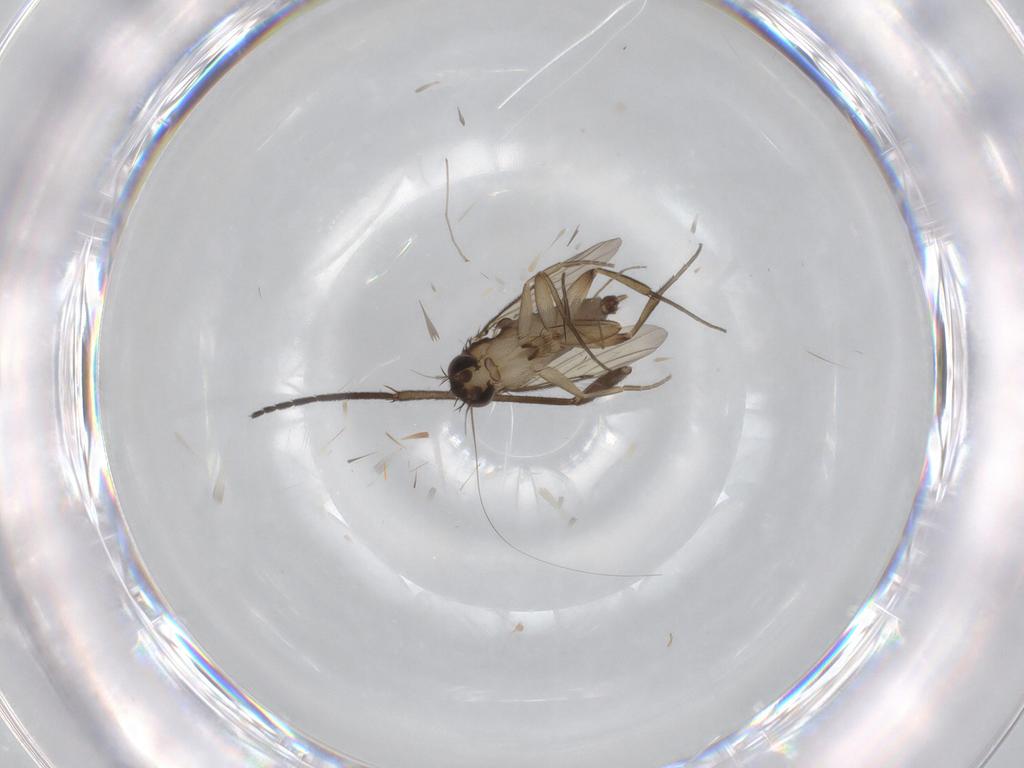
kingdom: Animalia
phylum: Arthropoda
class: Insecta
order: Diptera
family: Phoridae
